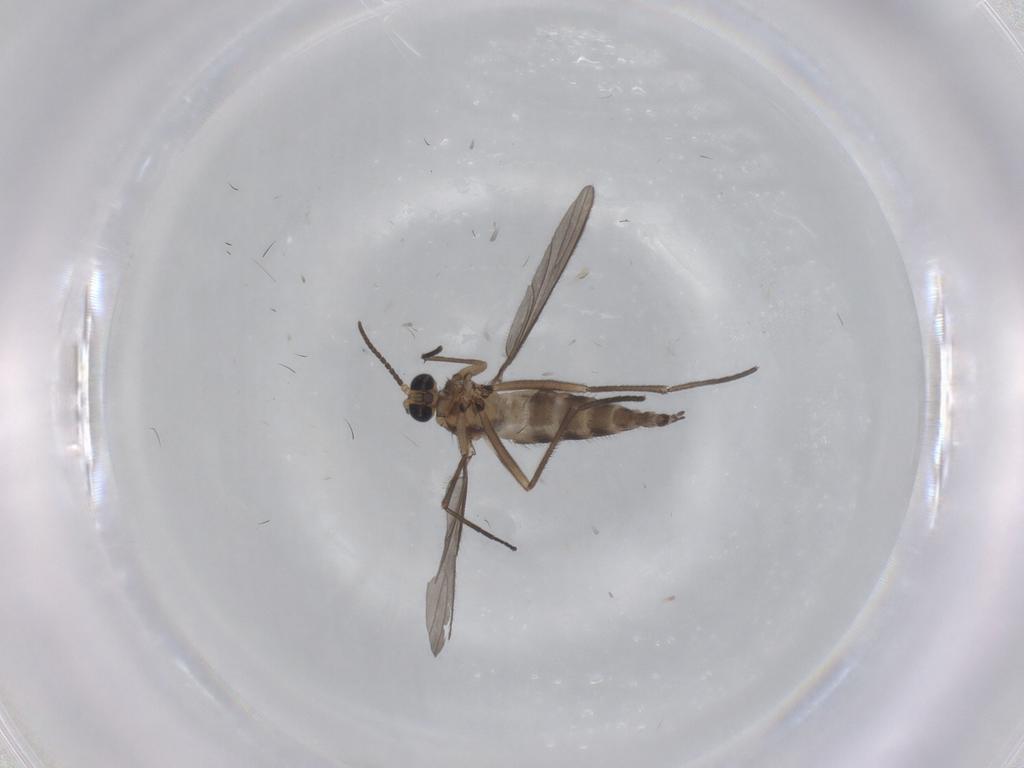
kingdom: Animalia
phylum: Arthropoda
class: Insecta
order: Diptera
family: Sciaridae
